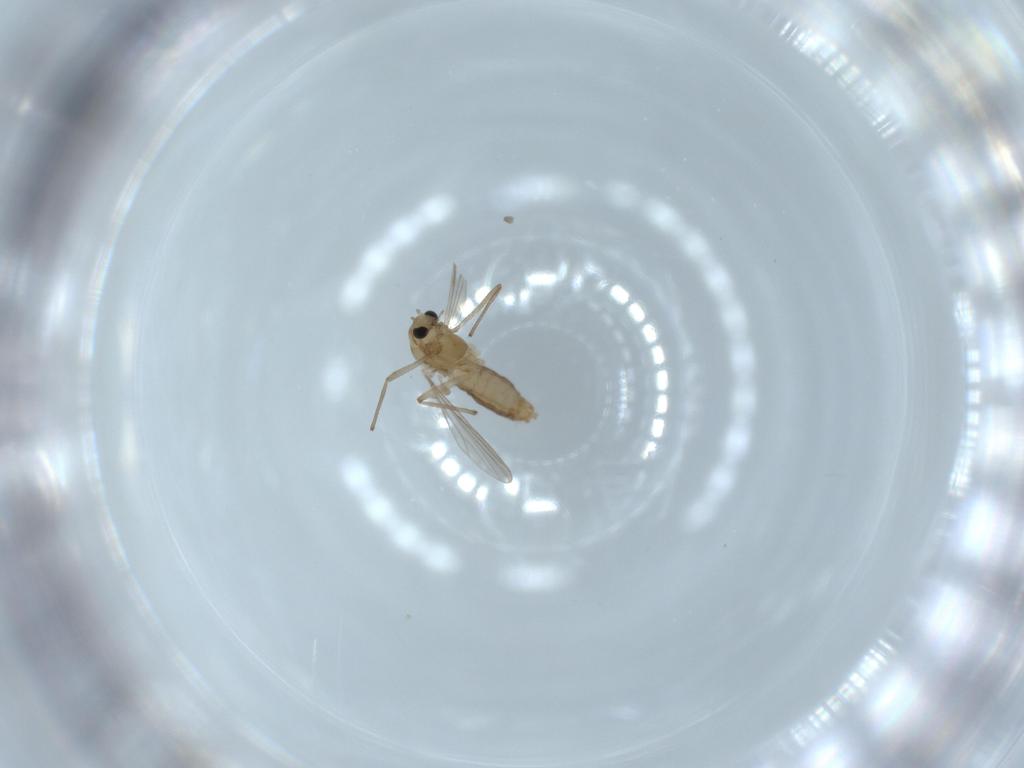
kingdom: Animalia
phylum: Arthropoda
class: Insecta
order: Diptera
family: Chironomidae
